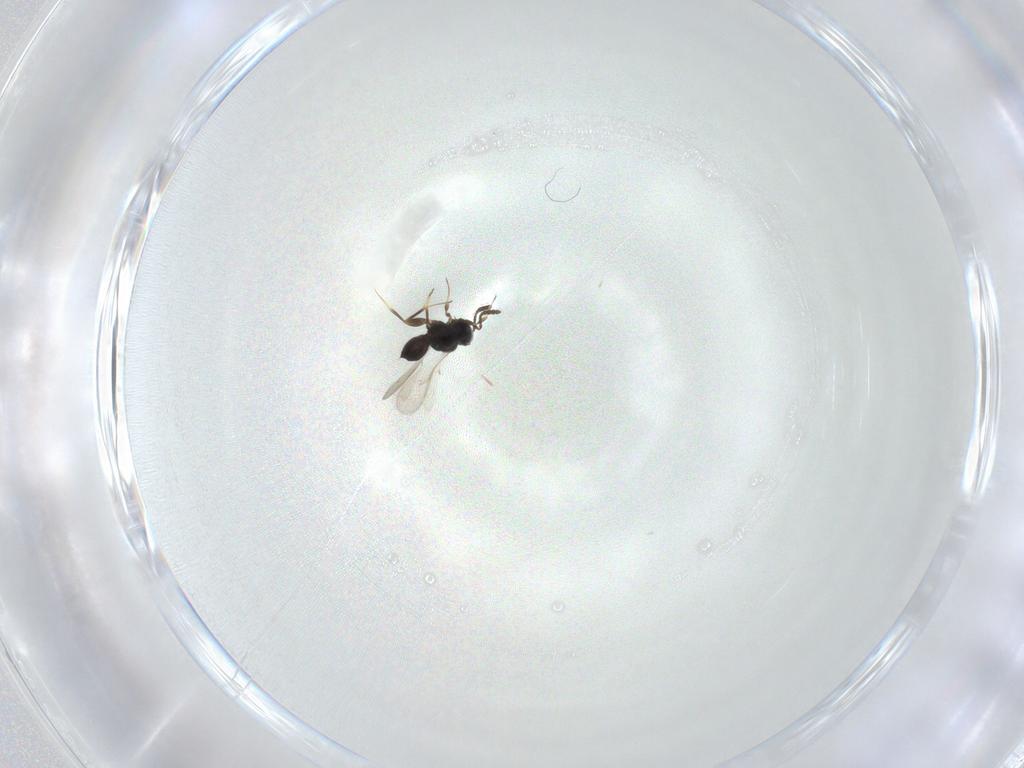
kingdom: Animalia
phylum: Arthropoda
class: Insecta
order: Hymenoptera
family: Scelionidae
